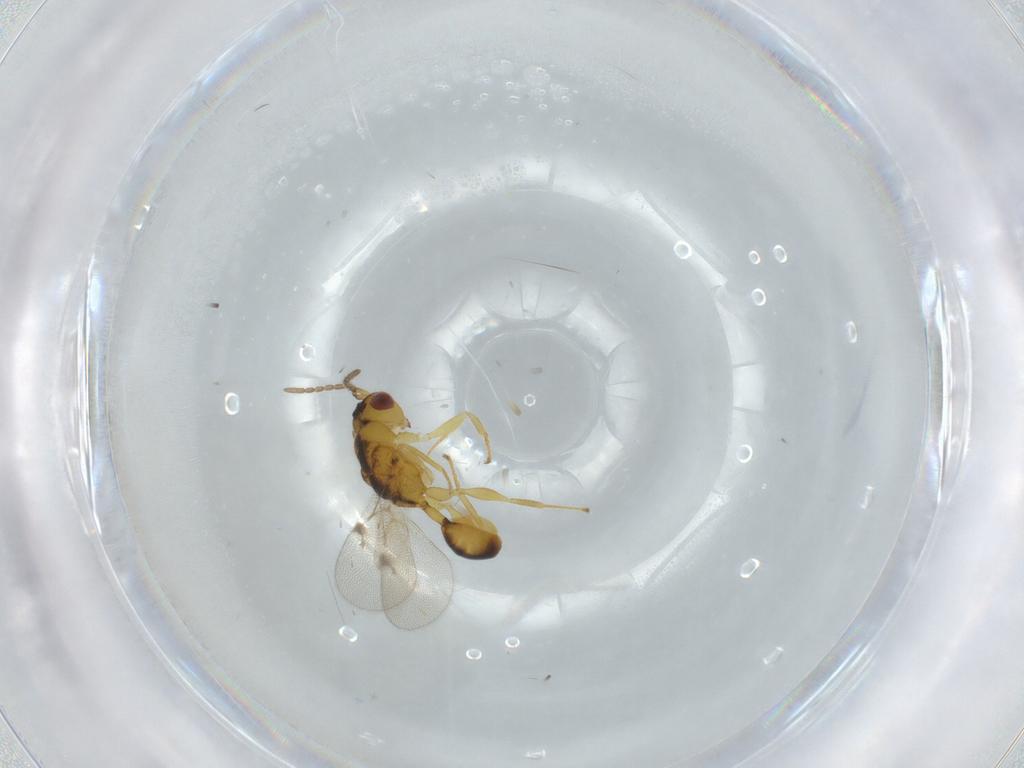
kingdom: Animalia
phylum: Arthropoda
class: Insecta
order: Hymenoptera
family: Eurytomidae
